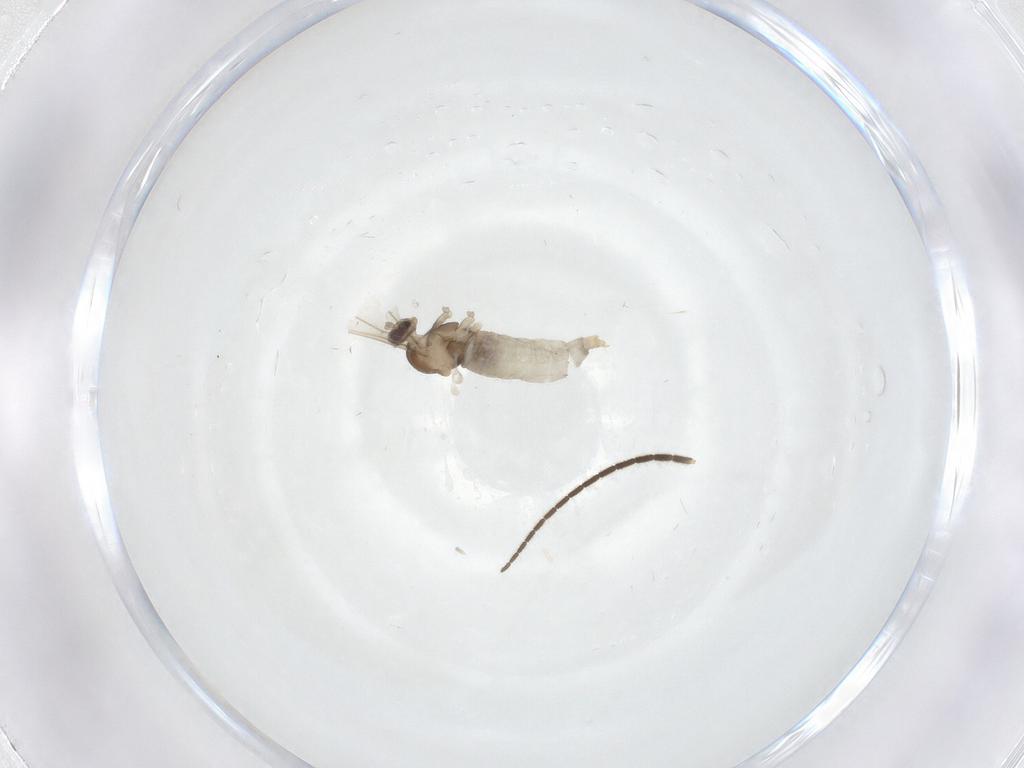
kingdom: Animalia
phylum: Arthropoda
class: Insecta
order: Diptera
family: Cecidomyiidae
